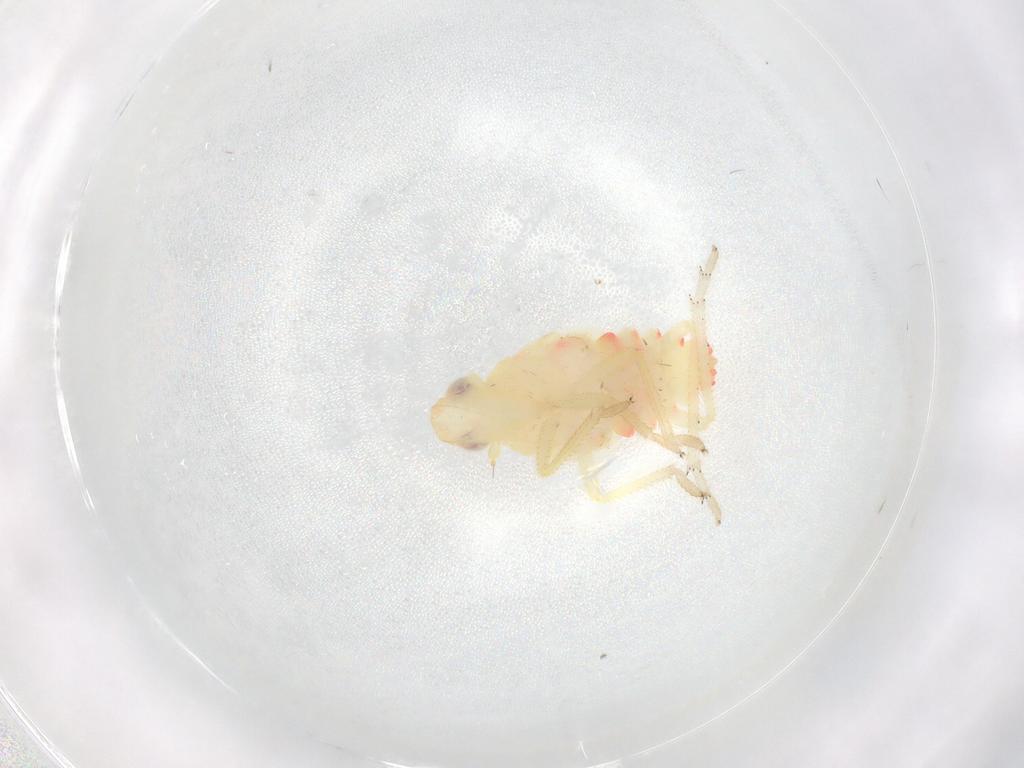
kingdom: Animalia
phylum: Arthropoda
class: Insecta
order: Hemiptera
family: Tropiduchidae
